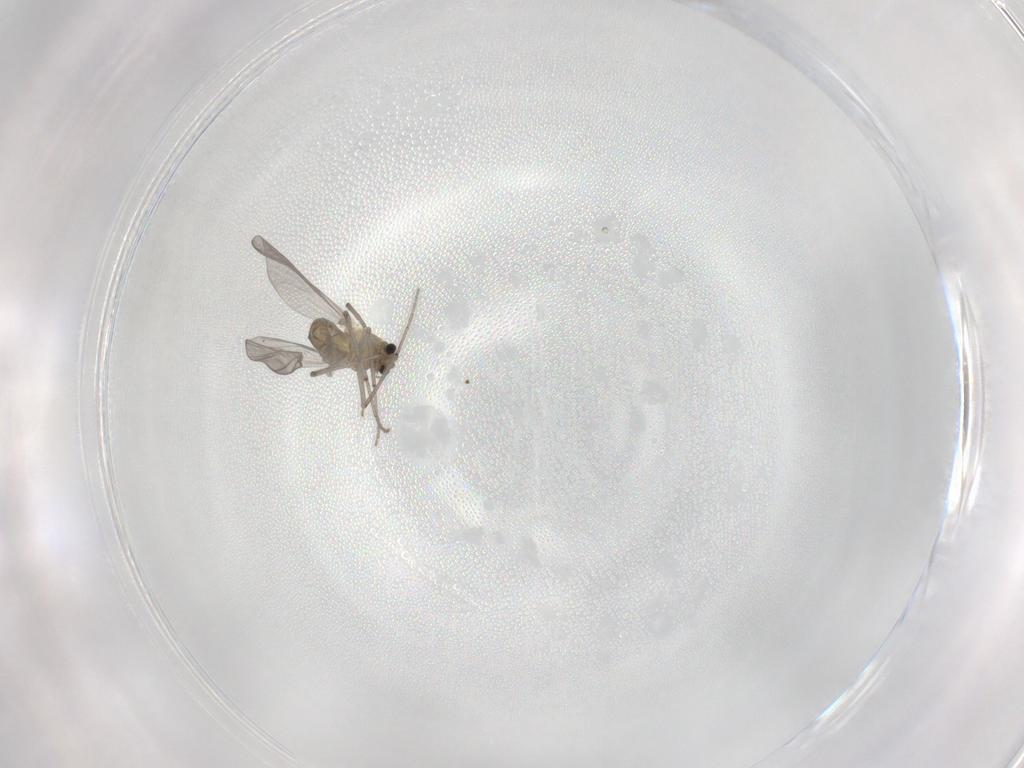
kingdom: Animalia
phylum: Arthropoda
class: Insecta
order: Diptera
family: Chironomidae
